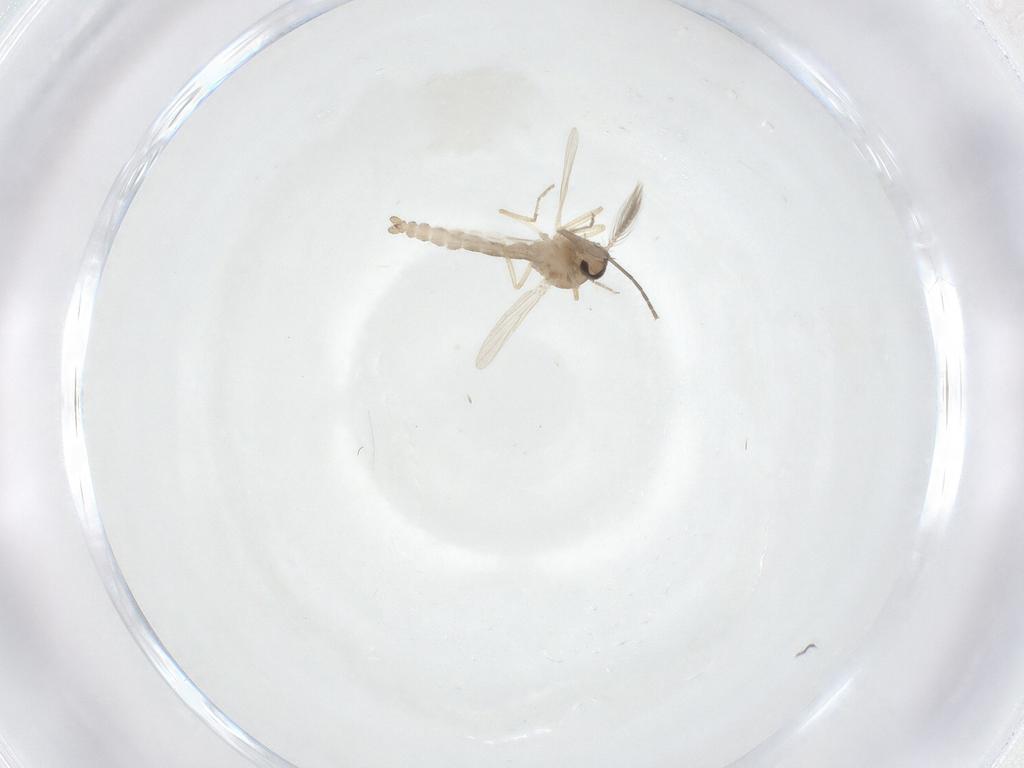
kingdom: Animalia
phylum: Arthropoda
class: Insecta
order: Diptera
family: Ceratopogonidae
